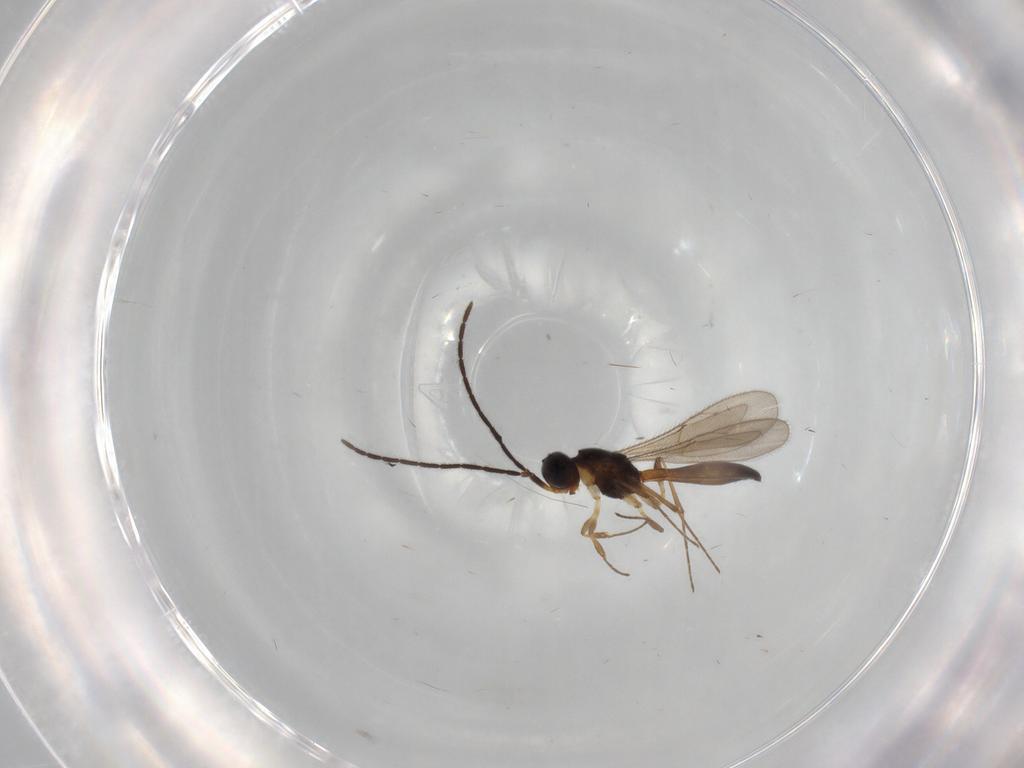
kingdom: Animalia
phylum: Arthropoda
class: Insecta
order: Hymenoptera
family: Scelionidae
